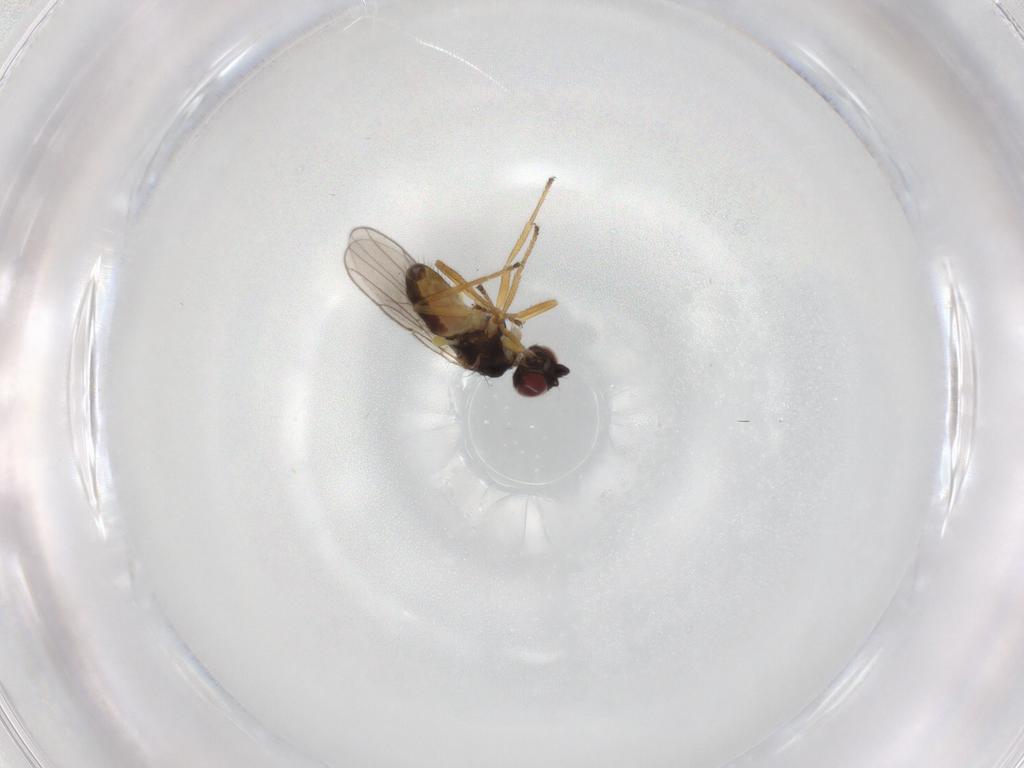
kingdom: Animalia
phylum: Arthropoda
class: Insecta
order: Diptera
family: Chloropidae
